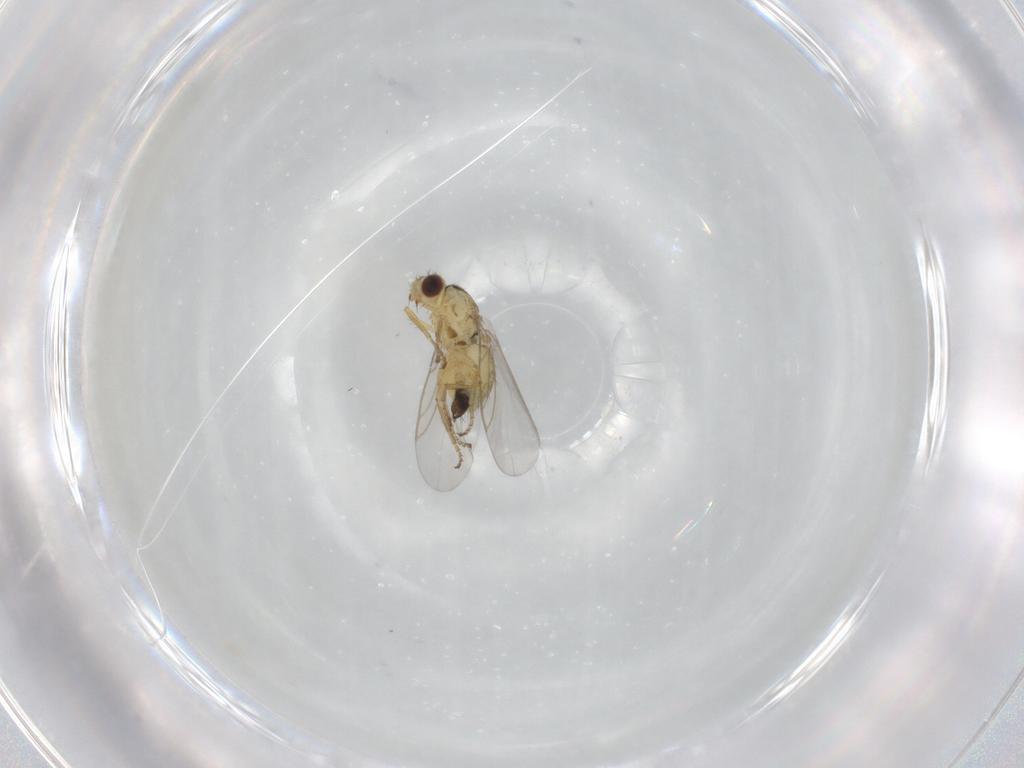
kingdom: Animalia
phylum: Arthropoda
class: Insecta
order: Diptera
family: Agromyzidae
